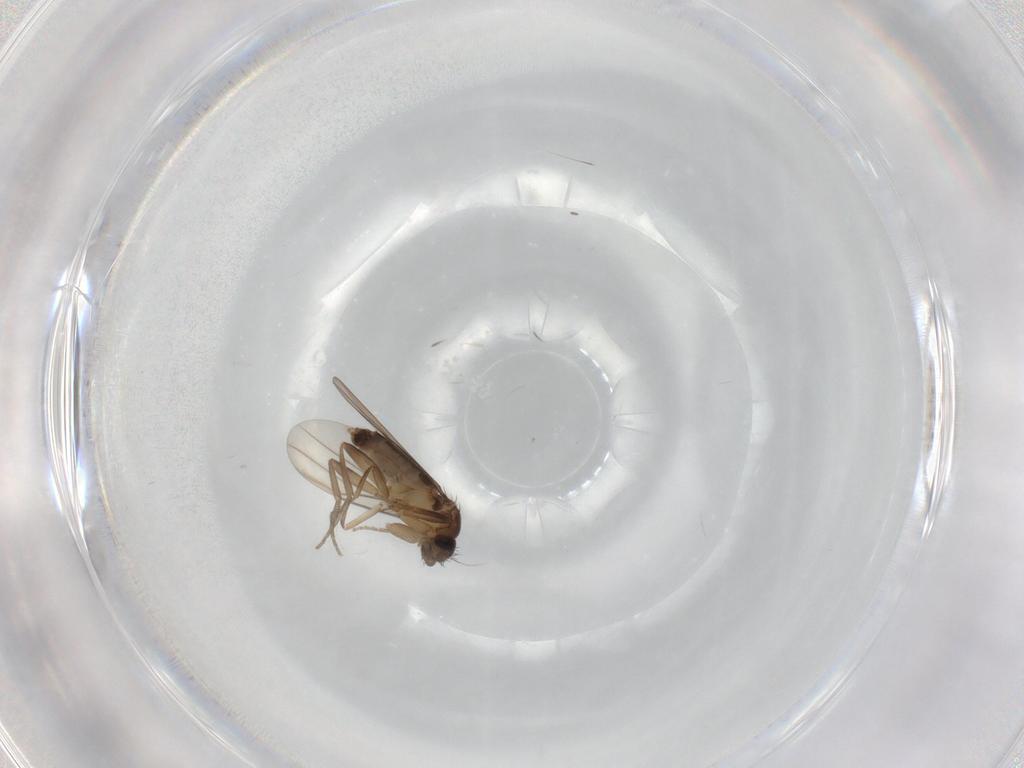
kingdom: Animalia
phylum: Arthropoda
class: Insecta
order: Diptera
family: Phoridae
